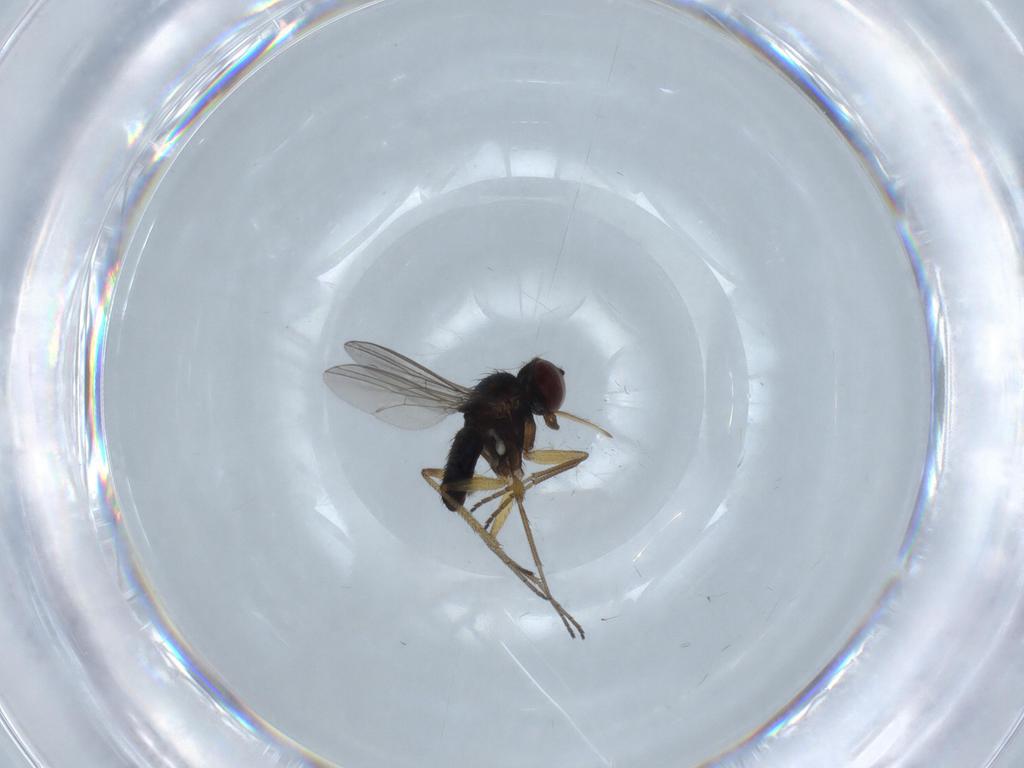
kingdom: Animalia
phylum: Arthropoda
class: Insecta
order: Diptera
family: Dolichopodidae
